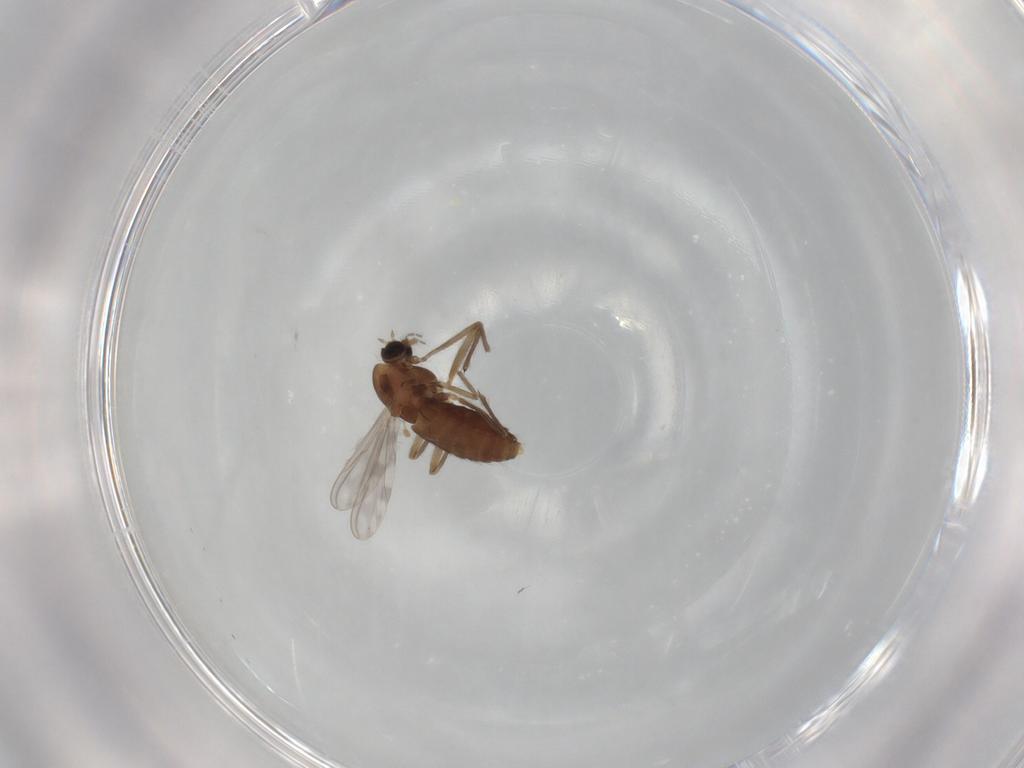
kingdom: Animalia
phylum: Arthropoda
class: Insecta
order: Diptera
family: Chironomidae
